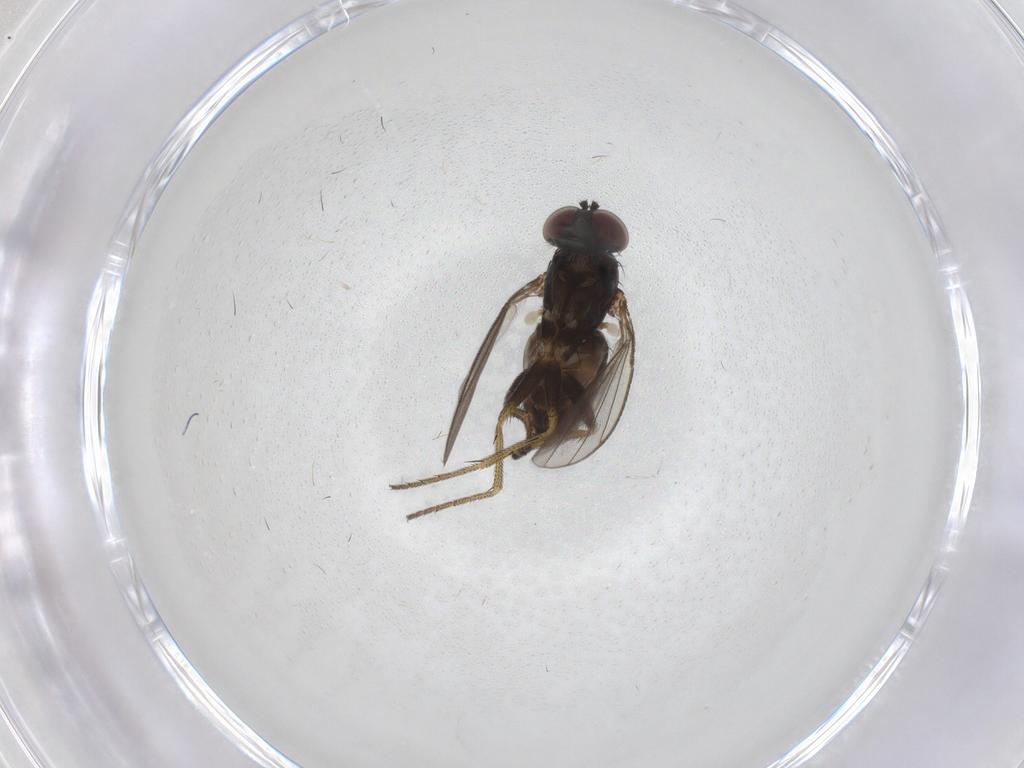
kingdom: Animalia
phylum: Arthropoda
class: Insecta
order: Diptera
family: Dolichopodidae
